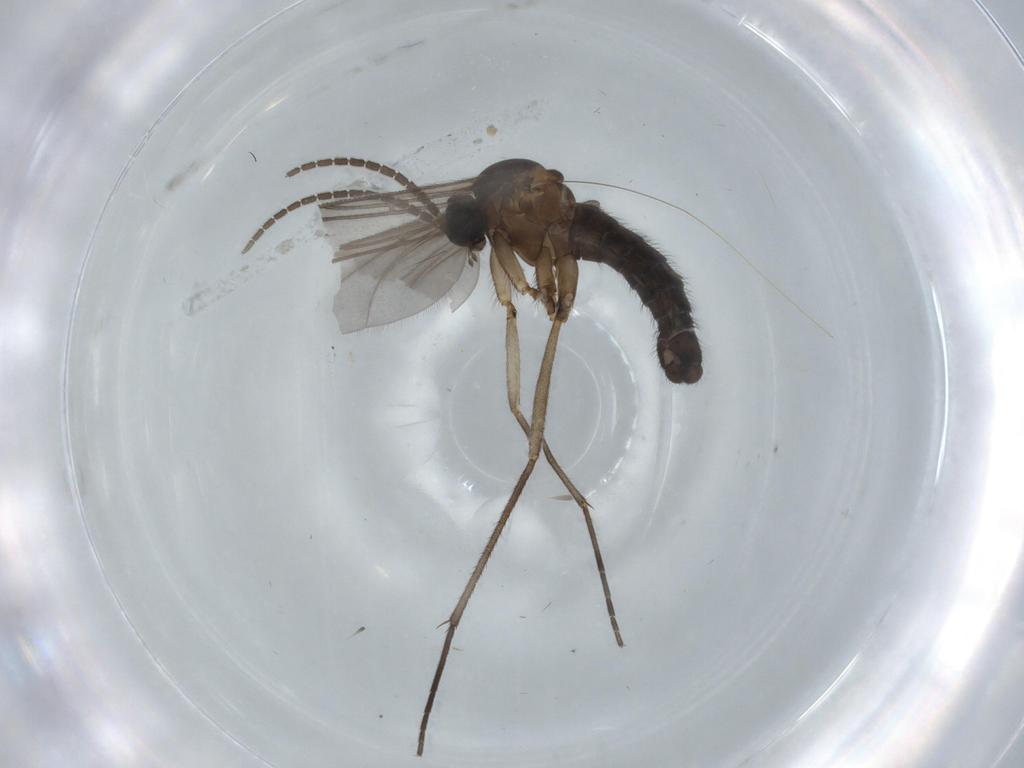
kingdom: Animalia
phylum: Arthropoda
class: Insecta
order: Diptera
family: Sciaridae
